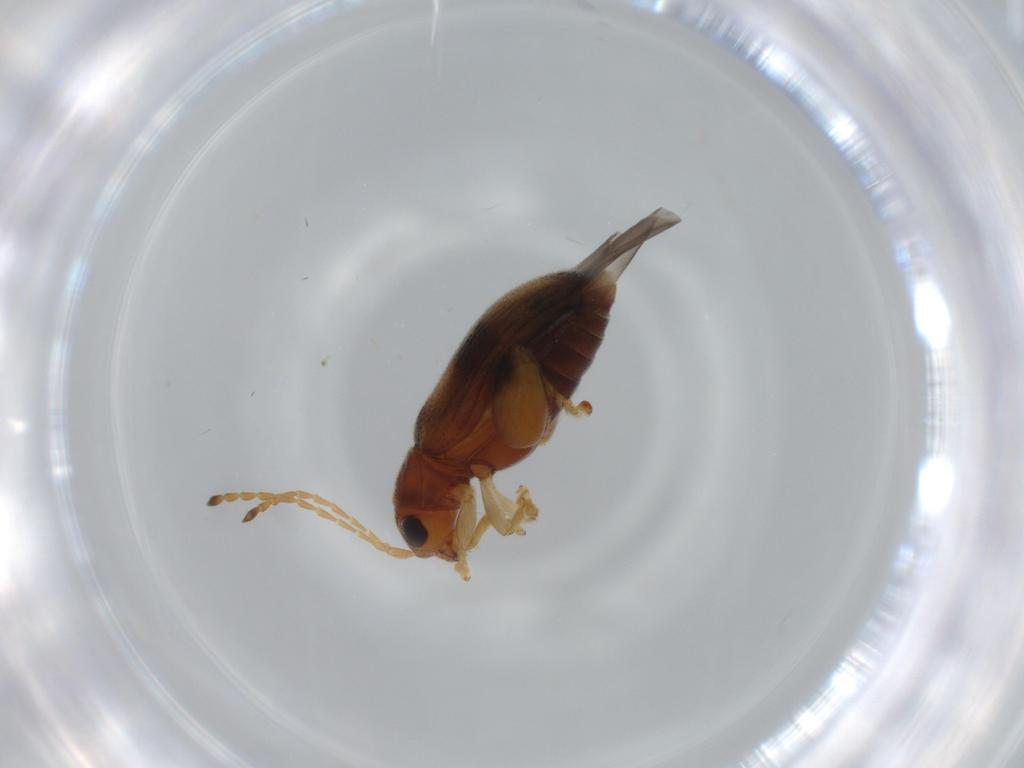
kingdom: Animalia
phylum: Arthropoda
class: Insecta
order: Coleoptera
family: Chrysomelidae
